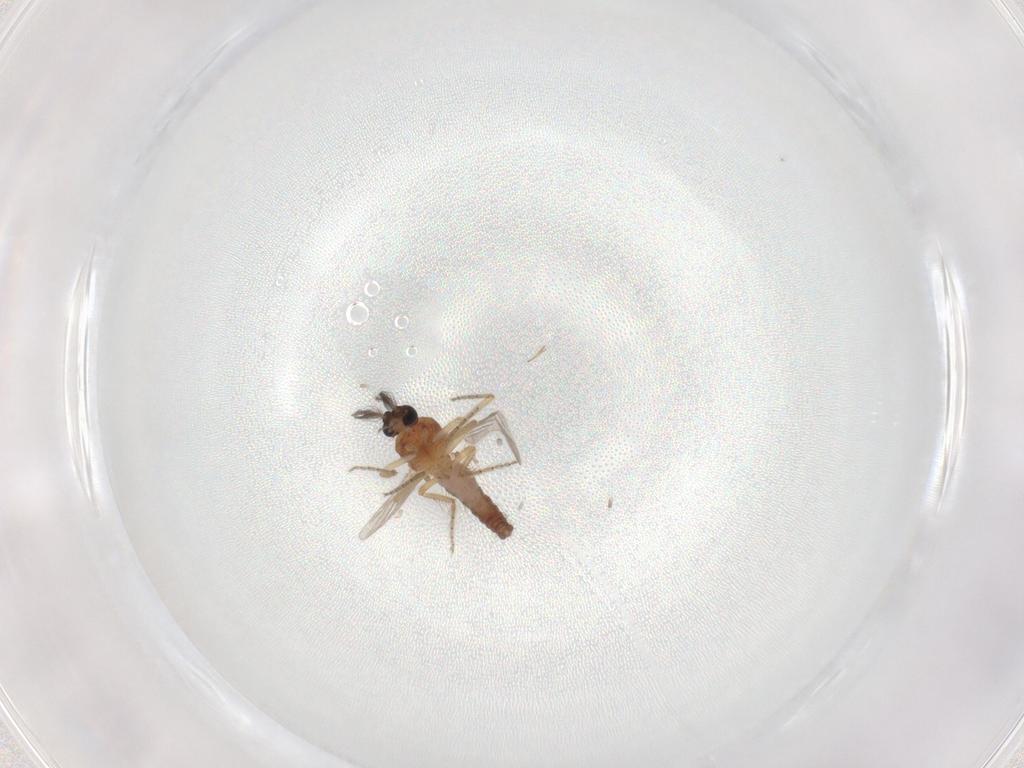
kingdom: Animalia
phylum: Arthropoda
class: Insecta
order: Diptera
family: Ceratopogonidae
